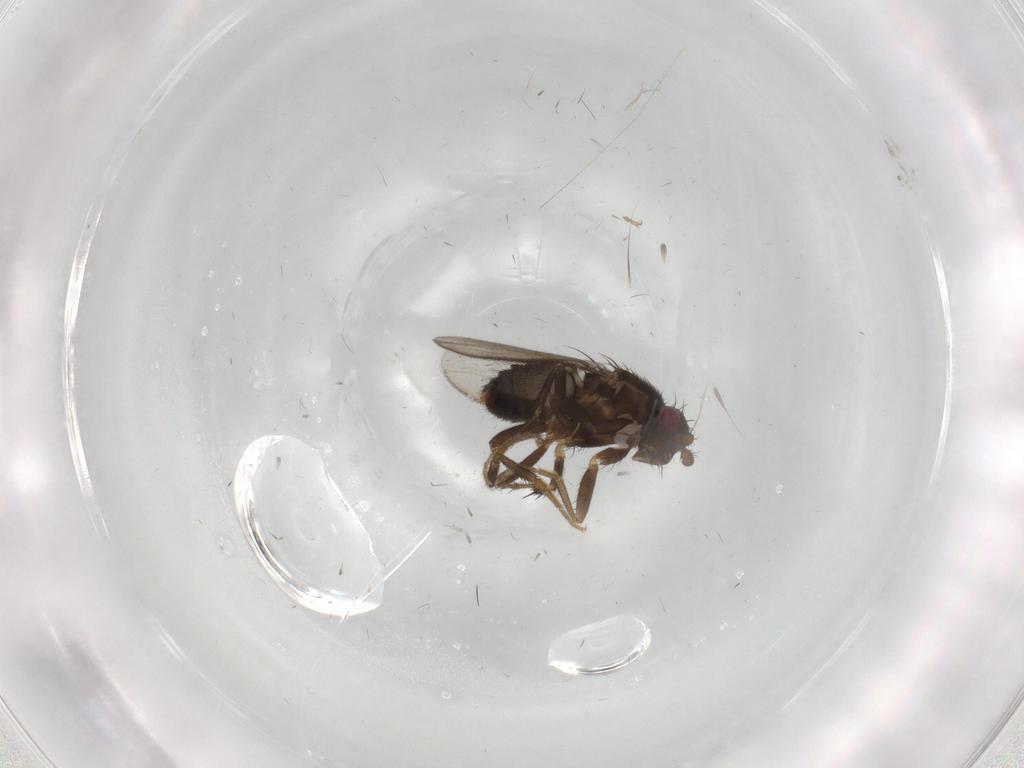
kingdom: Animalia
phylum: Arthropoda
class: Insecta
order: Diptera
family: Sphaeroceridae
